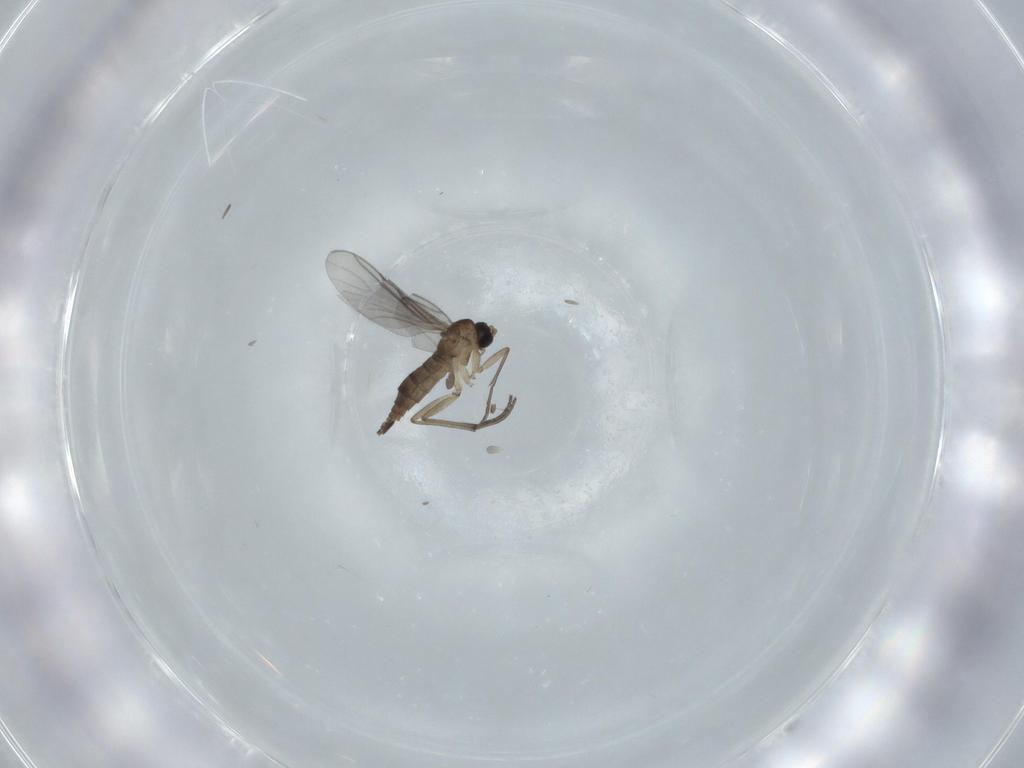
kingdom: Animalia
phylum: Arthropoda
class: Insecta
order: Diptera
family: Sciaridae
